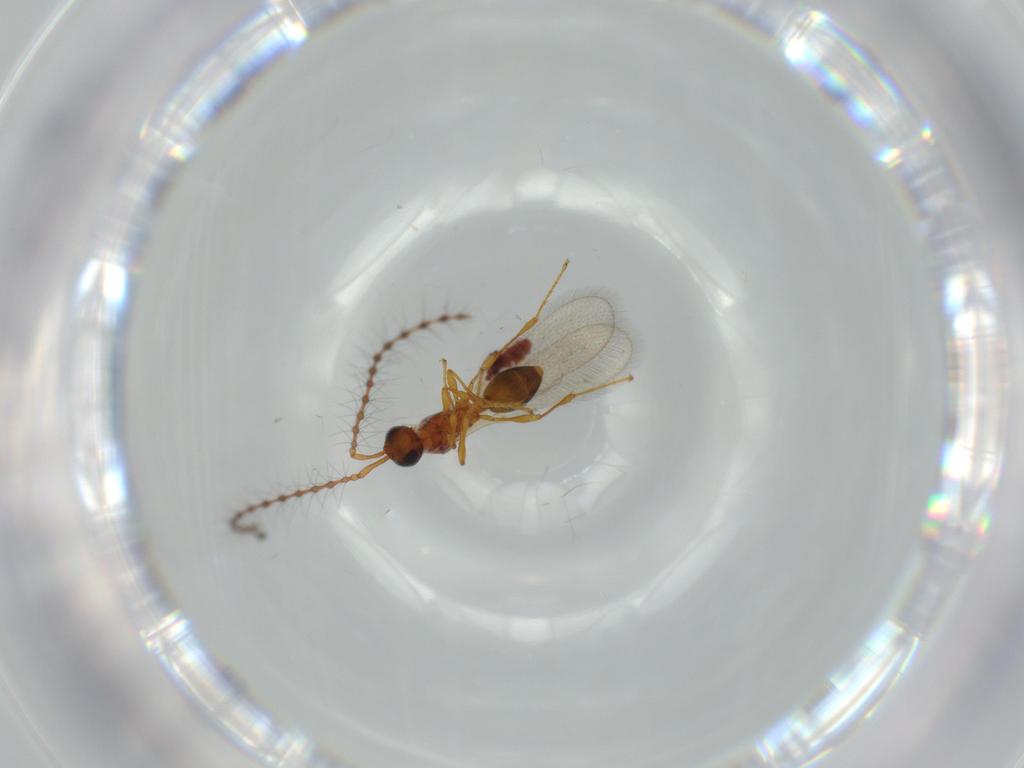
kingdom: Animalia
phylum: Arthropoda
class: Insecta
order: Hymenoptera
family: Diapriidae
